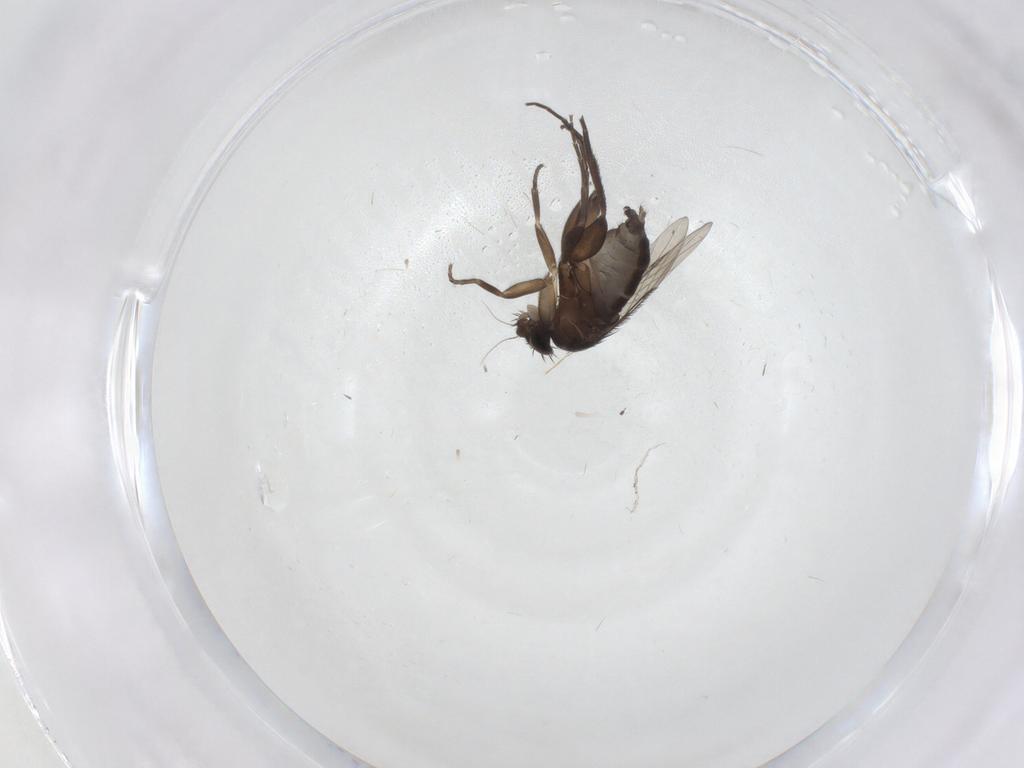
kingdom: Animalia
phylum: Arthropoda
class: Insecta
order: Diptera
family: Phoridae
